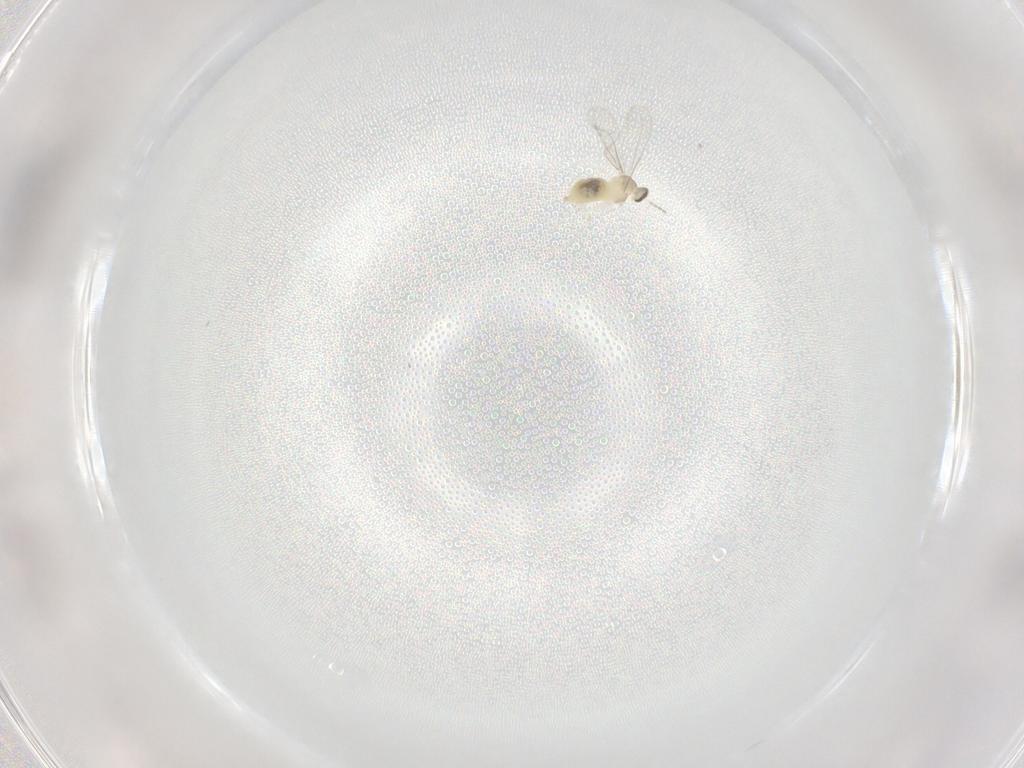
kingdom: Animalia
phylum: Arthropoda
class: Insecta
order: Diptera
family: Cecidomyiidae
